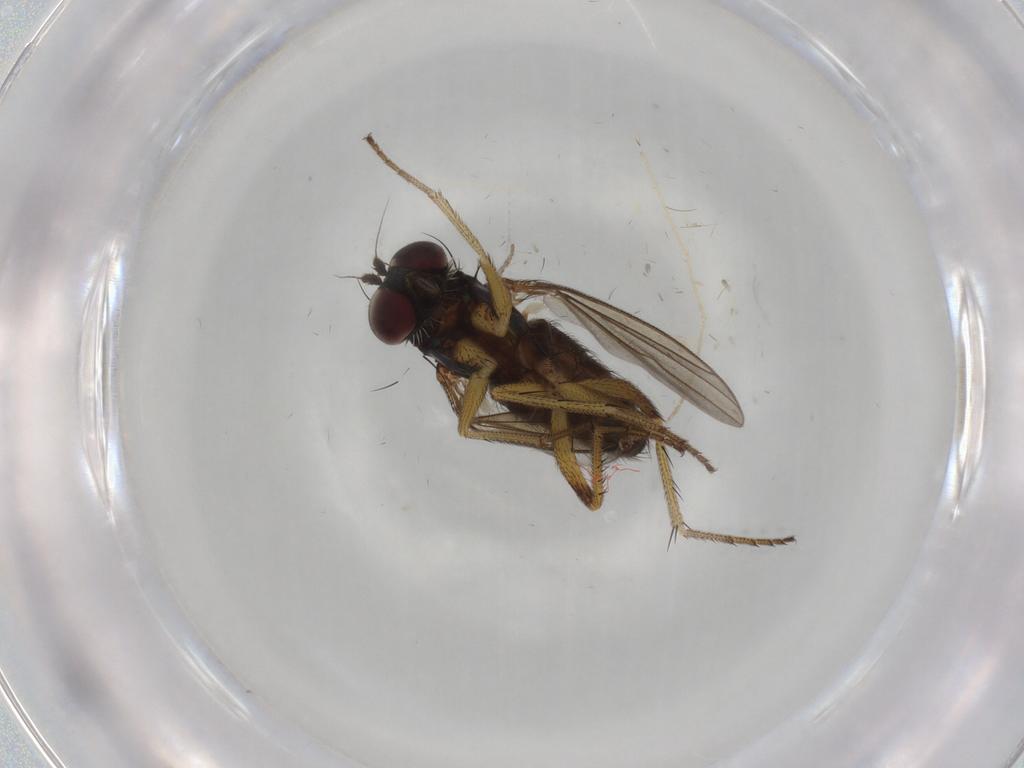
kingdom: Animalia
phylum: Arthropoda
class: Insecta
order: Diptera
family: Dolichopodidae
